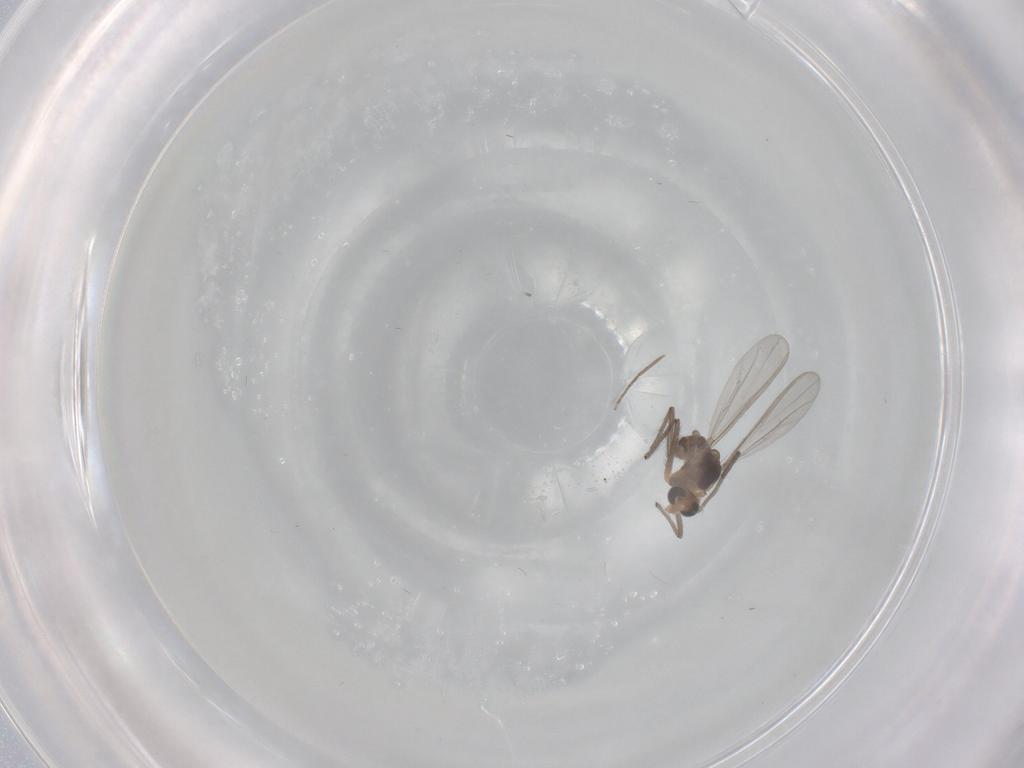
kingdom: Animalia
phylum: Arthropoda
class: Insecta
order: Diptera
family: Chironomidae
